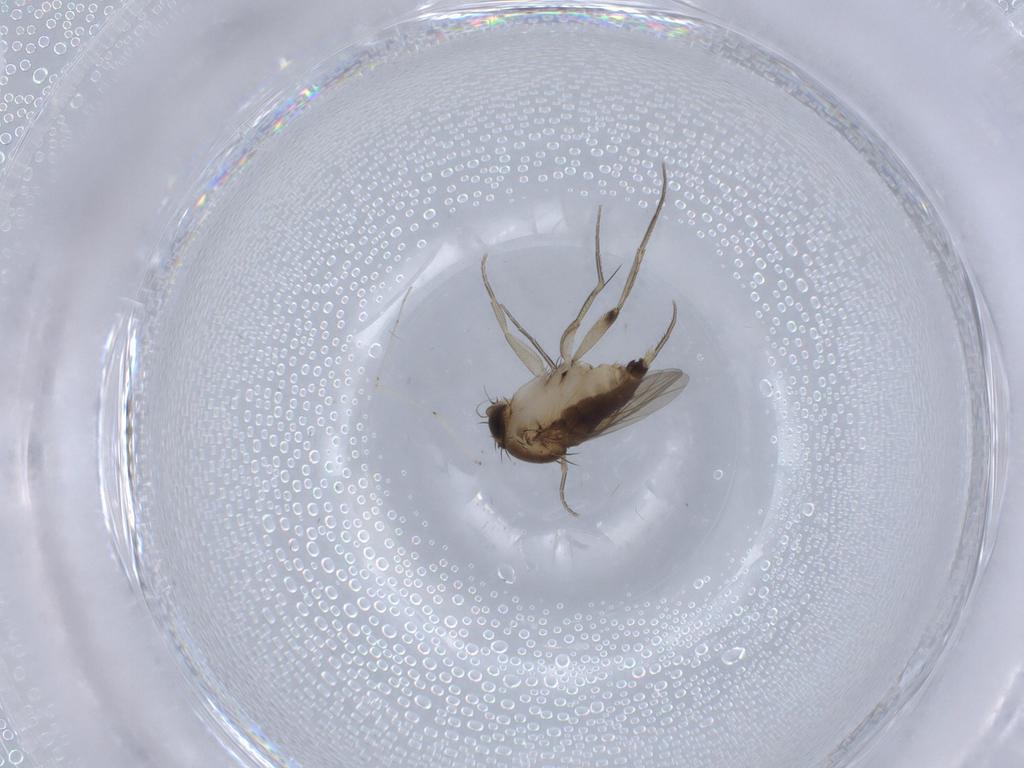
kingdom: Animalia
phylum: Arthropoda
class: Insecta
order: Diptera
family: Cecidomyiidae
